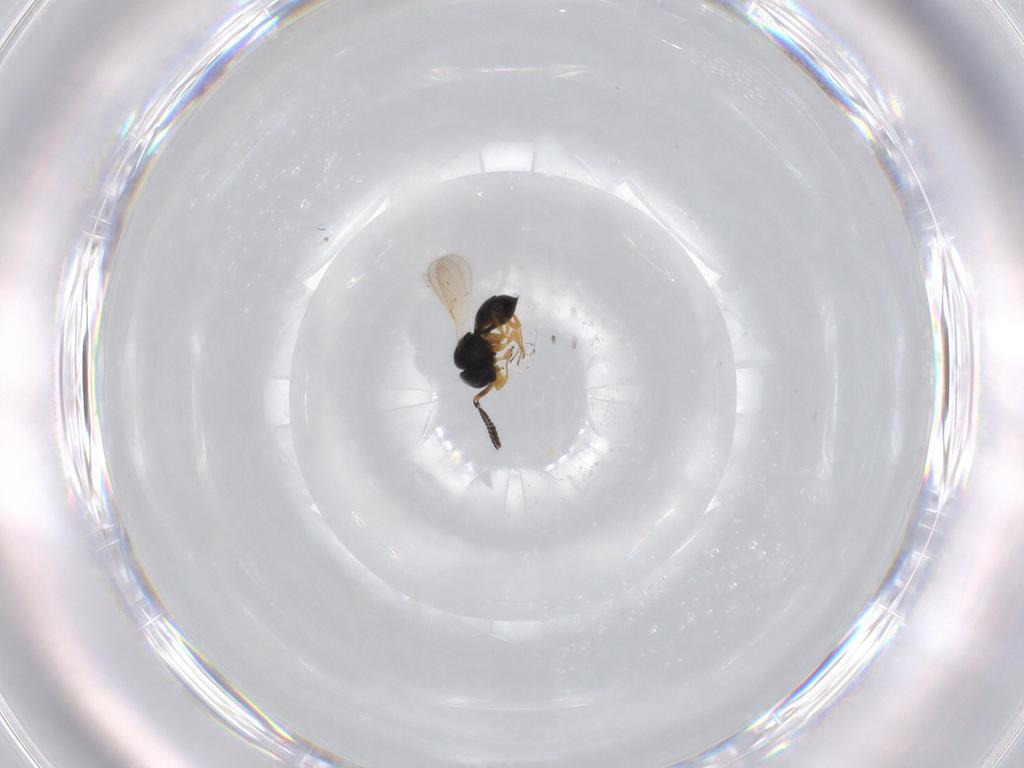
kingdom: Animalia
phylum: Arthropoda
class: Insecta
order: Hymenoptera
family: Scelionidae
